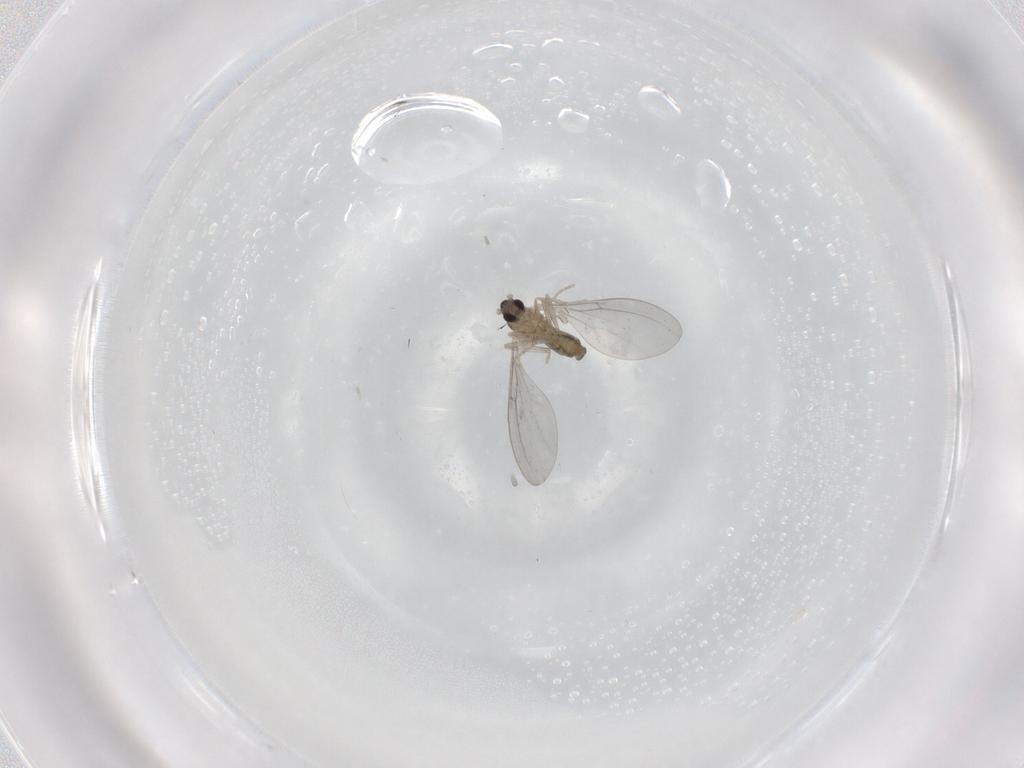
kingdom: Animalia
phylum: Arthropoda
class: Insecta
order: Diptera
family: Cecidomyiidae
